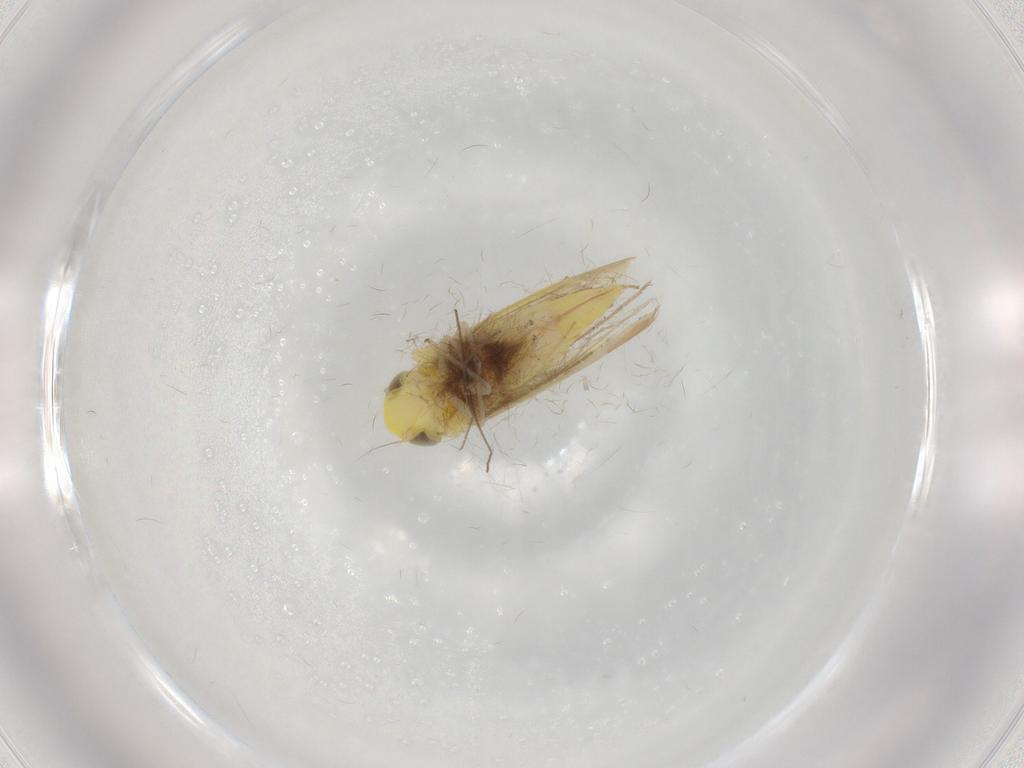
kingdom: Animalia
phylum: Arthropoda
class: Insecta
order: Hemiptera
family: Cicadellidae
